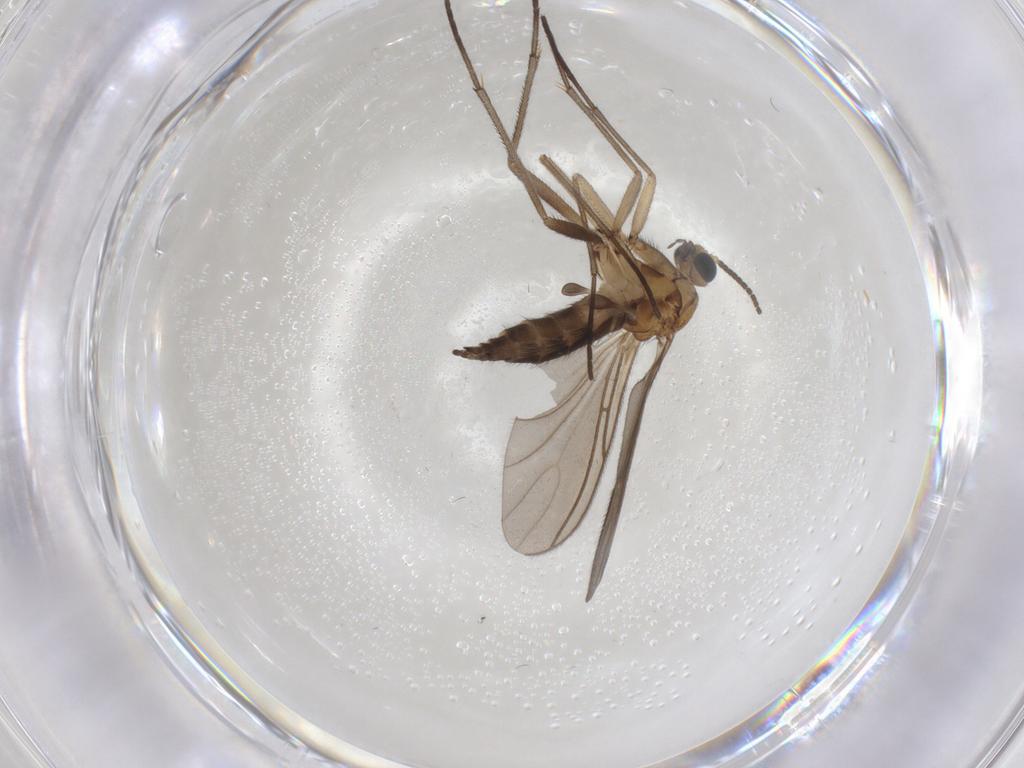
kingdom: Animalia
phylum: Arthropoda
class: Insecta
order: Diptera
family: Sciaridae
